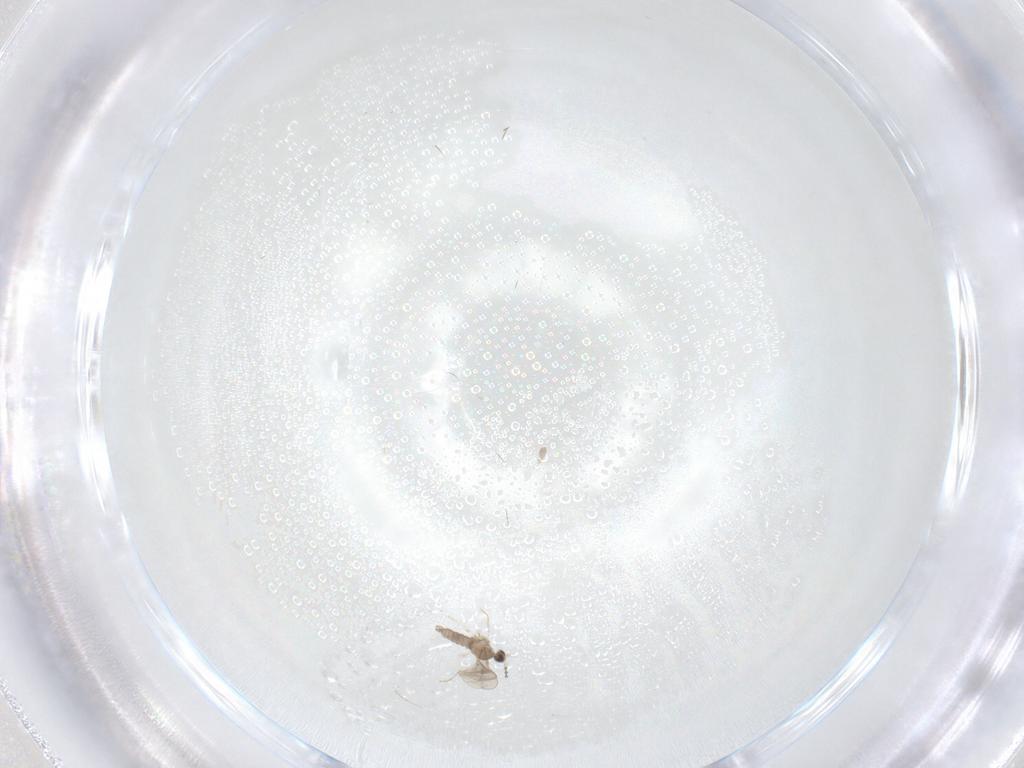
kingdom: Animalia
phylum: Arthropoda
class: Insecta
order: Diptera
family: Cecidomyiidae
